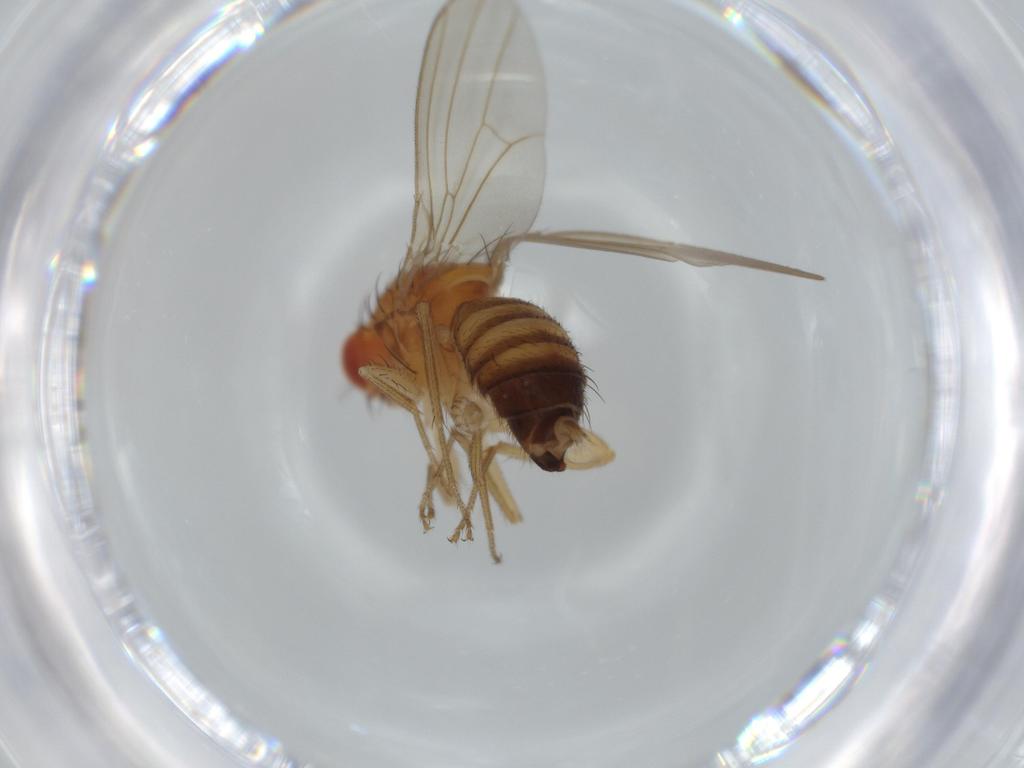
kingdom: Animalia
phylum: Arthropoda
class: Insecta
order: Diptera
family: Drosophilidae
